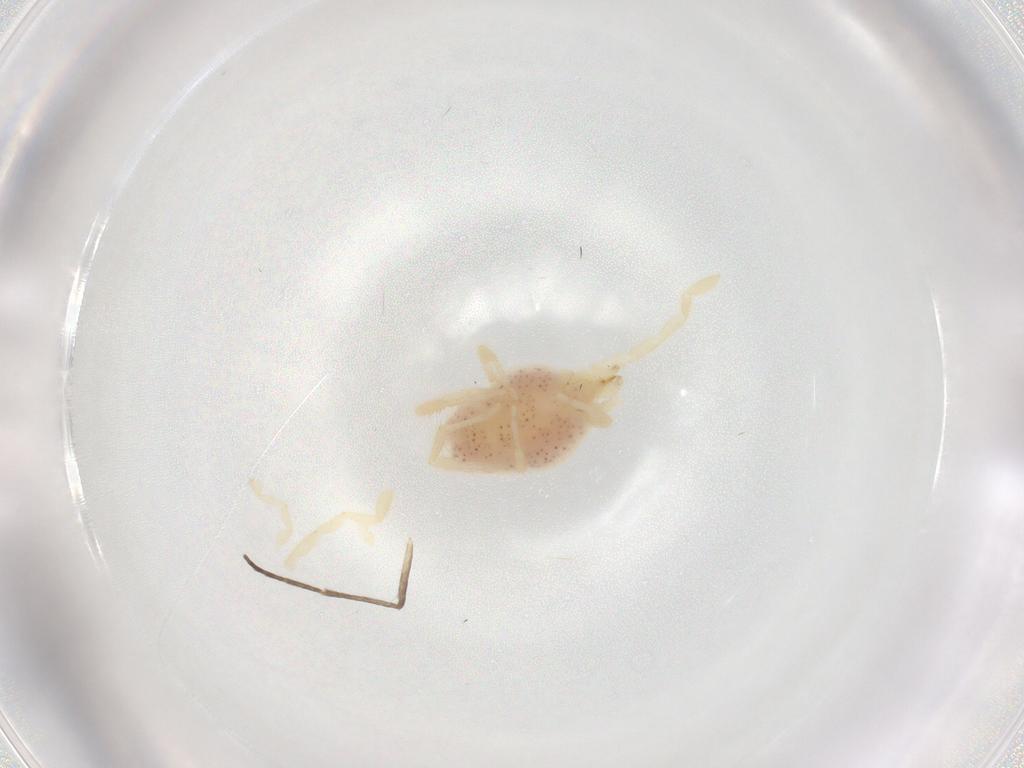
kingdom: Animalia
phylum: Arthropoda
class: Arachnida
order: Trombidiformes
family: Erythraeidae
